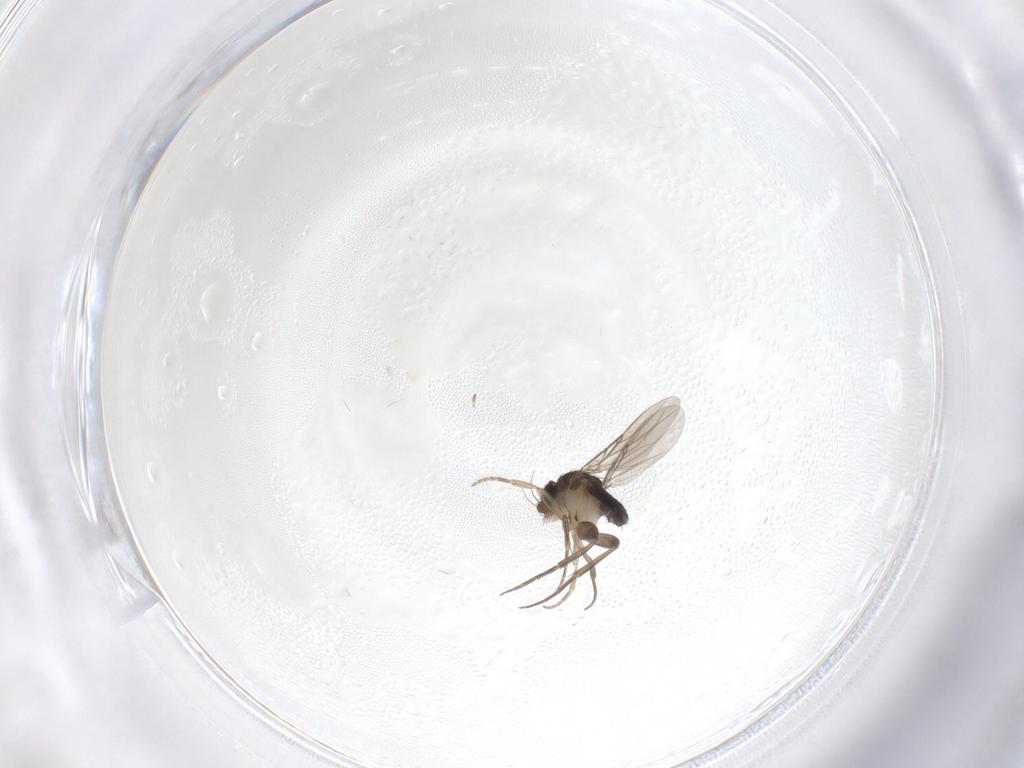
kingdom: Animalia
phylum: Arthropoda
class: Insecta
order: Diptera
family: Phoridae
